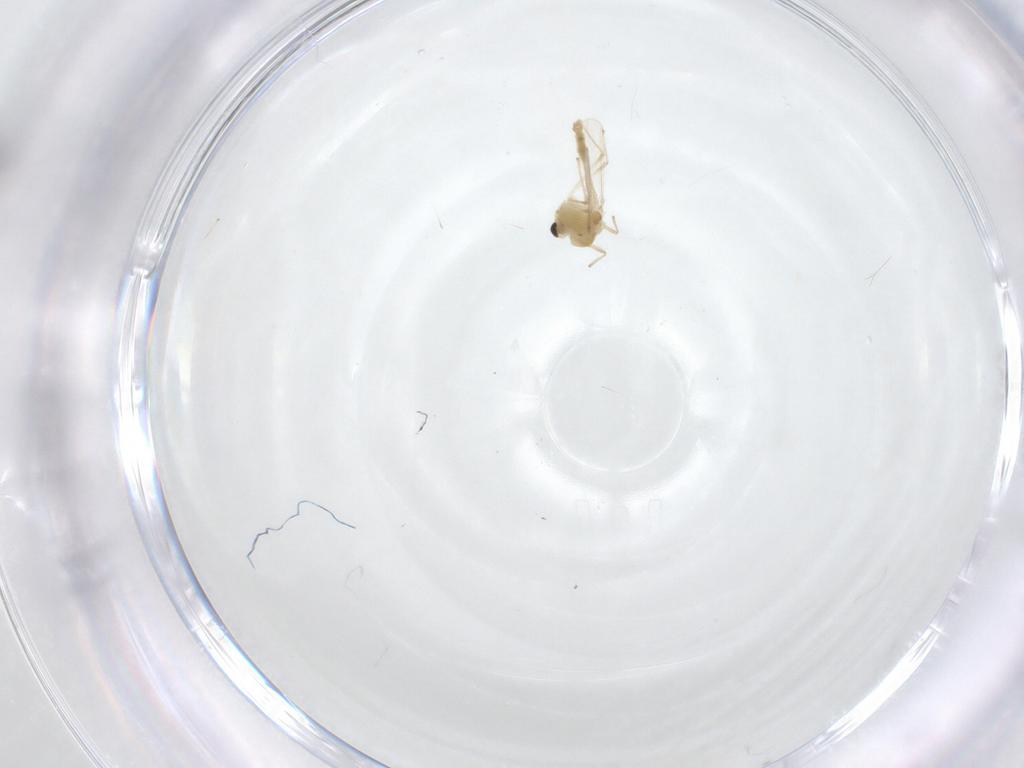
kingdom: Animalia
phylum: Arthropoda
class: Insecta
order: Diptera
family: Chironomidae
